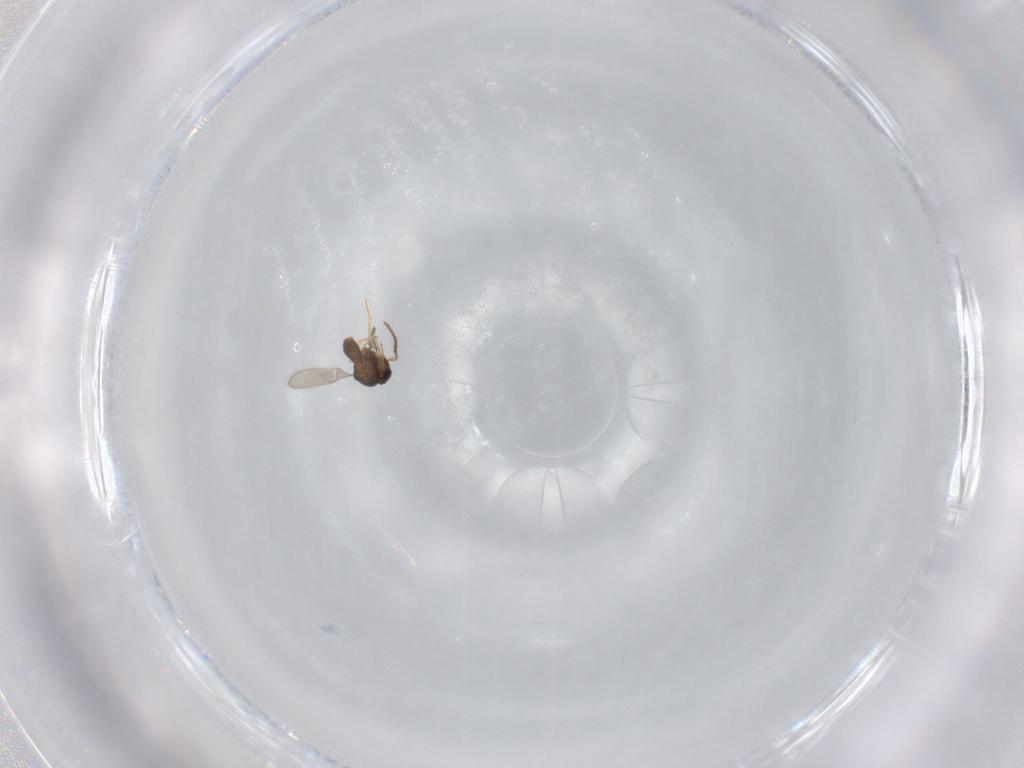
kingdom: Animalia
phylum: Arthropoda
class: Insecta
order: Hymenoptera
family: Scelionidae
